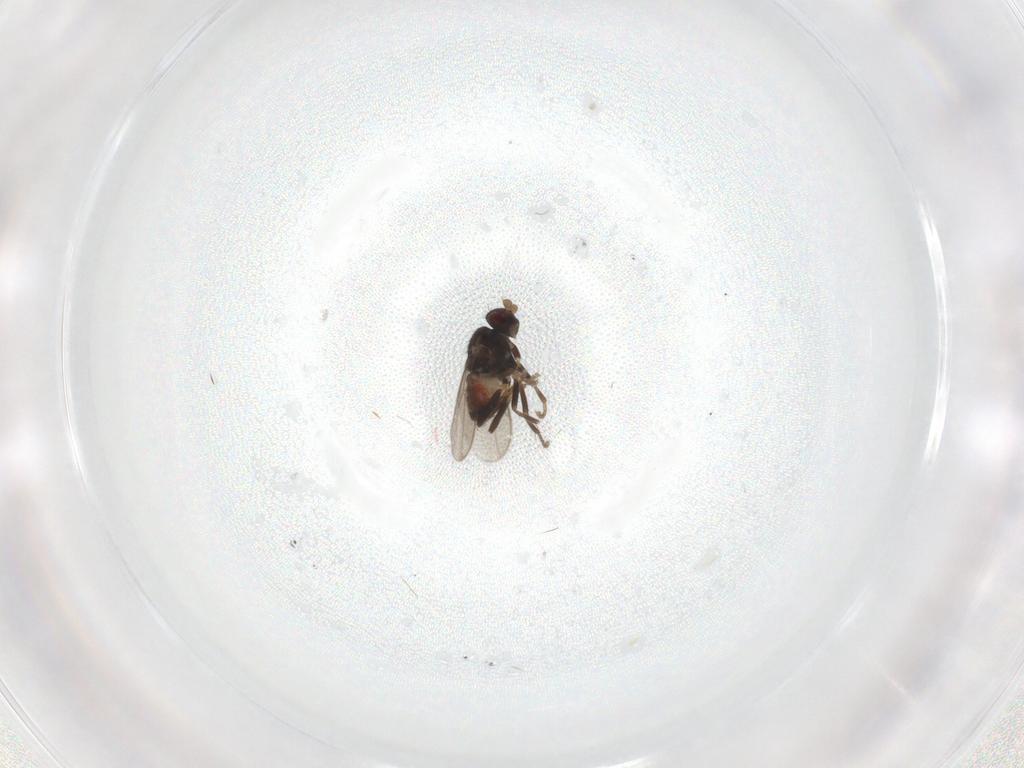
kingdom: Animalia
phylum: Arthropoda
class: Insecta
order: Diptera
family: Sphaeroceridae
